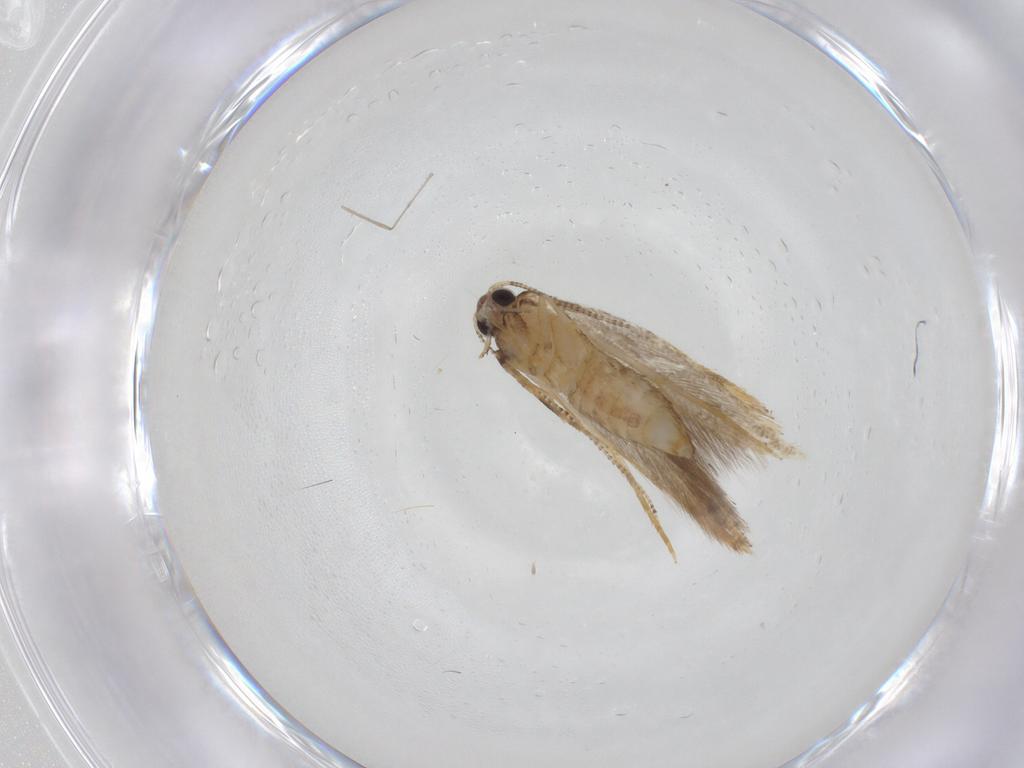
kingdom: Animalia
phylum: Arthropoda
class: Insecta
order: Lepidoptera
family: Tineidae
